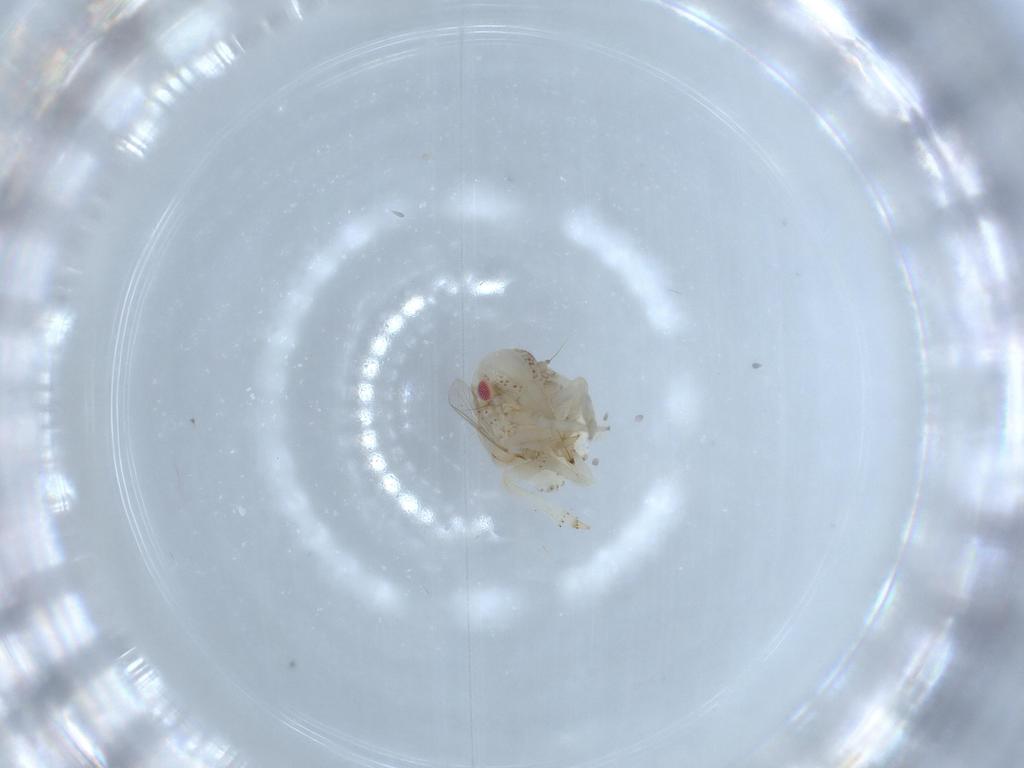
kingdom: Animalia
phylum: Arthropoda
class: Insecta
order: Hemiptera
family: Acanaloniidae
